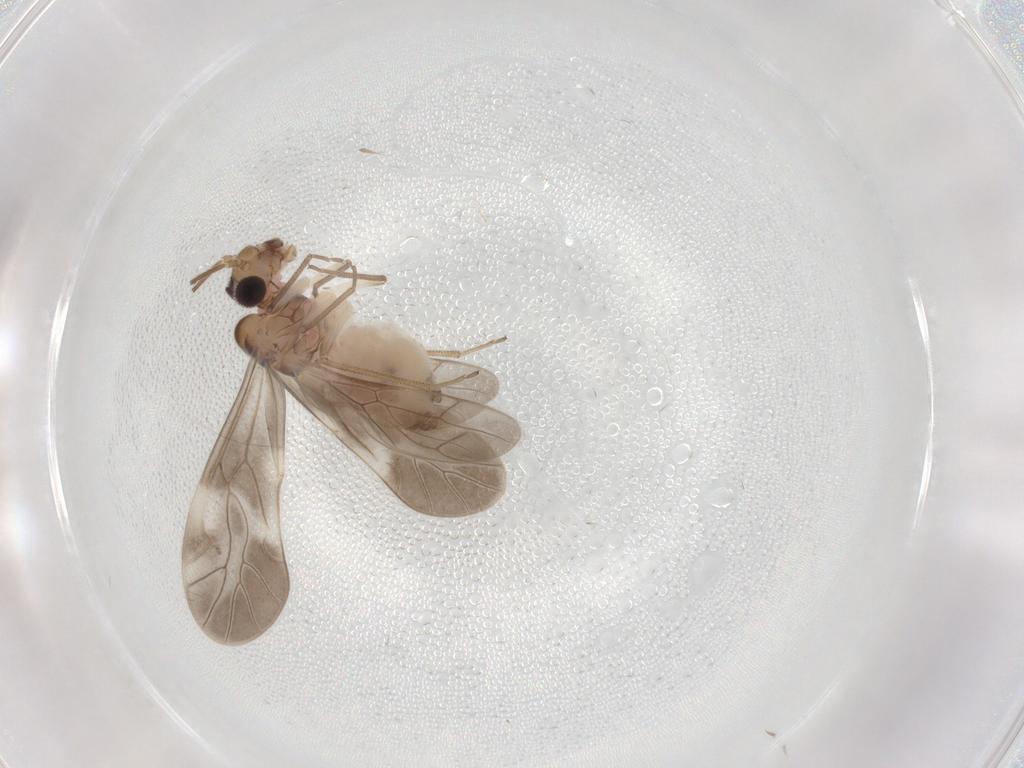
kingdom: Animalia
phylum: Arthropoda
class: Insecta
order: Psocodea
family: Caeciliusidae
